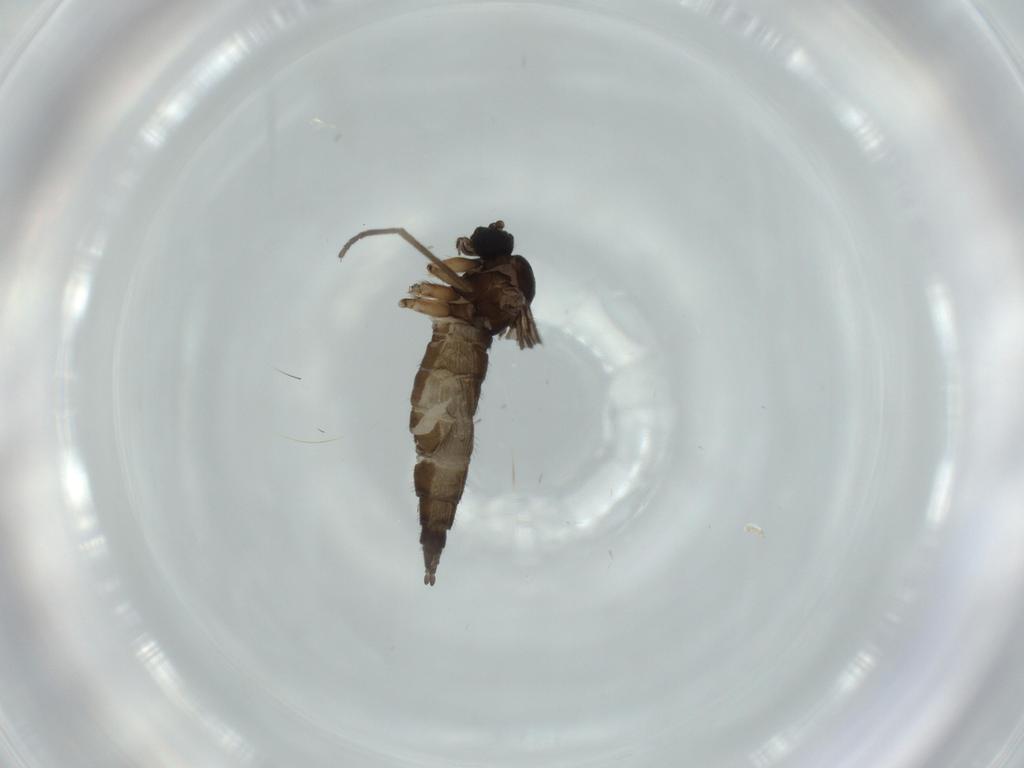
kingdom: Animalia
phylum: Arthropoda
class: Insecta
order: Diptera
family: Sciaridae
